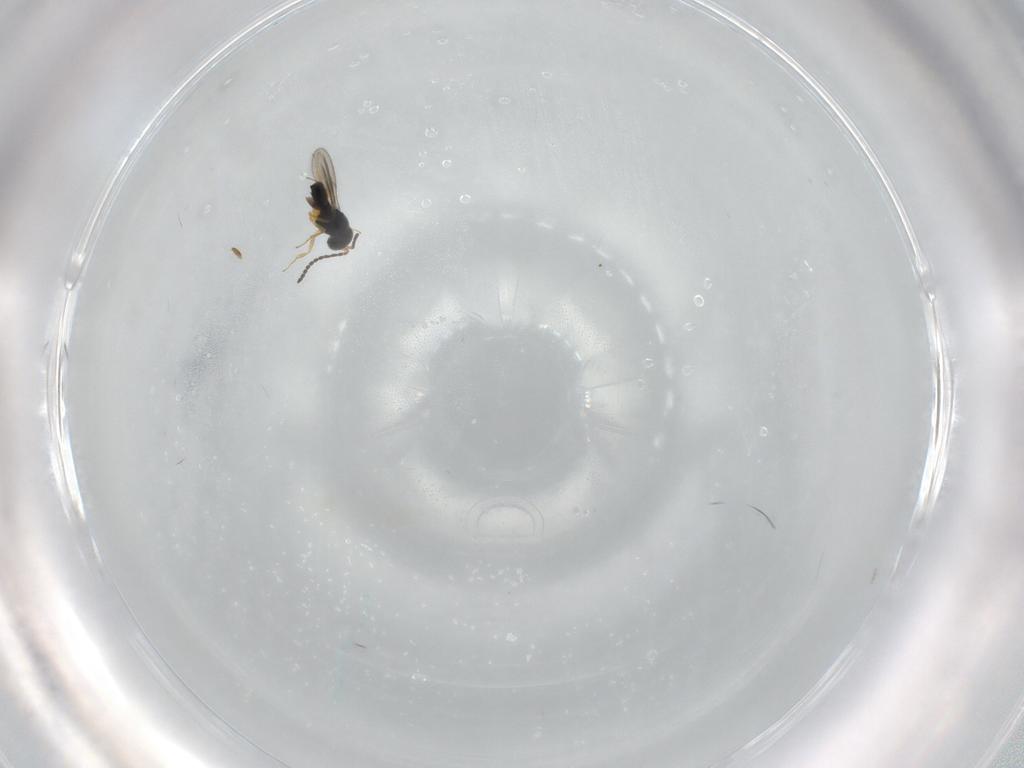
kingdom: Animalia
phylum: Arthropoda
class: Insecta
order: Hymenoptera
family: Scelionidae
